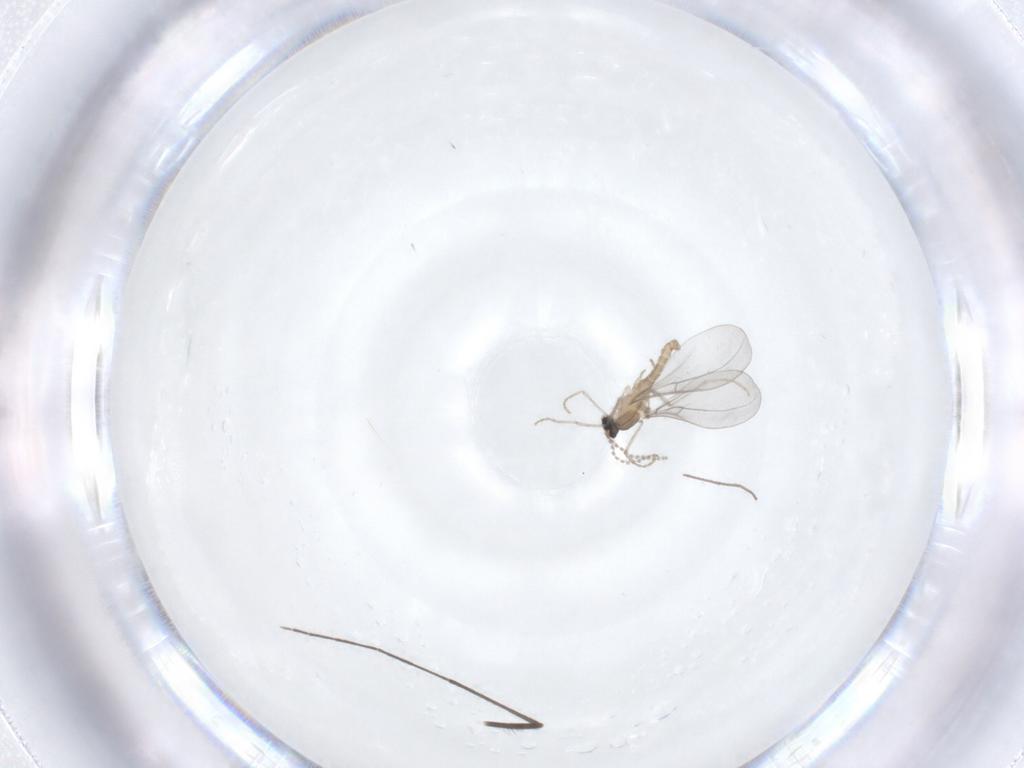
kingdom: Animalia
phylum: Arthropoda
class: Insecta
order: Diptera
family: Cecidomyiidae
